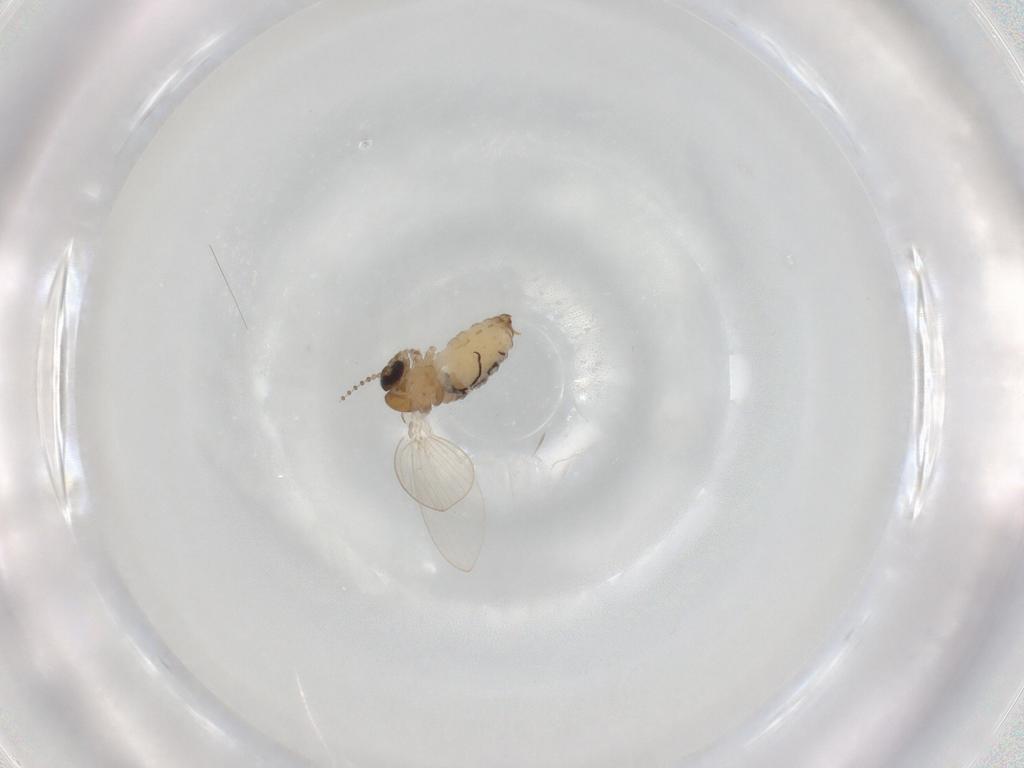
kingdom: Animalia
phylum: Arthropoda
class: Insecta
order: Diptera
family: Psychodidae
